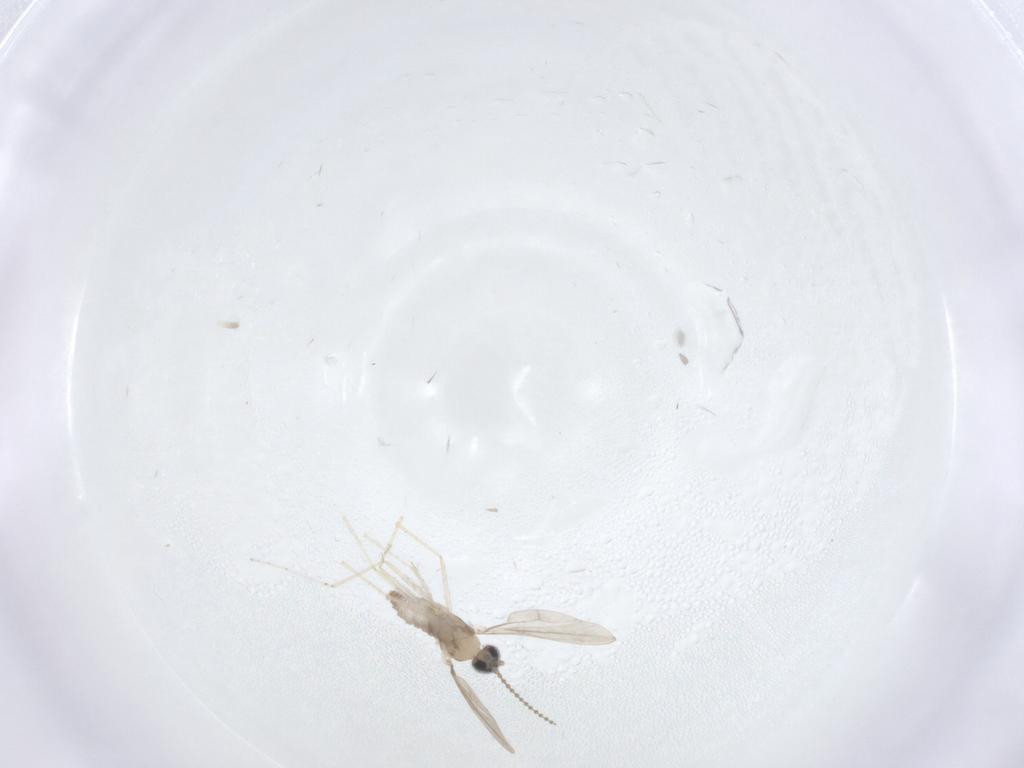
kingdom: Animalia
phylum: Arthropoda
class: Insecta
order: Diptera
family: Cecidomyiidae
